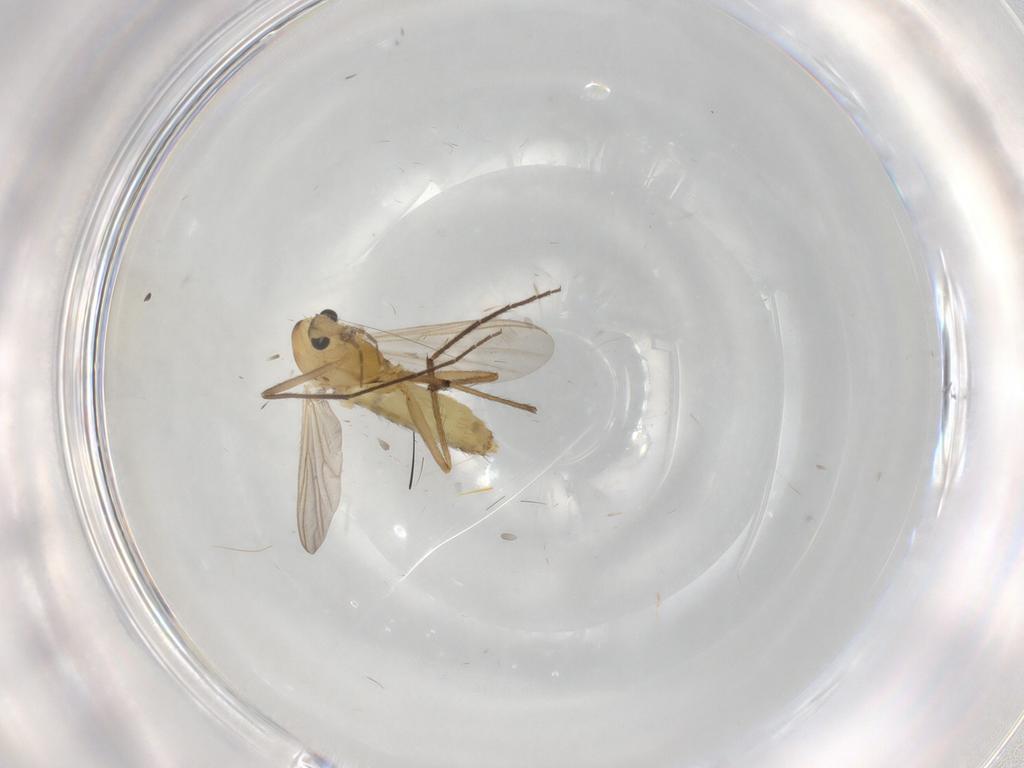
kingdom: Animalia
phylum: Arthropoda
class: Insecta
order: Diptera
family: Chironomidae
